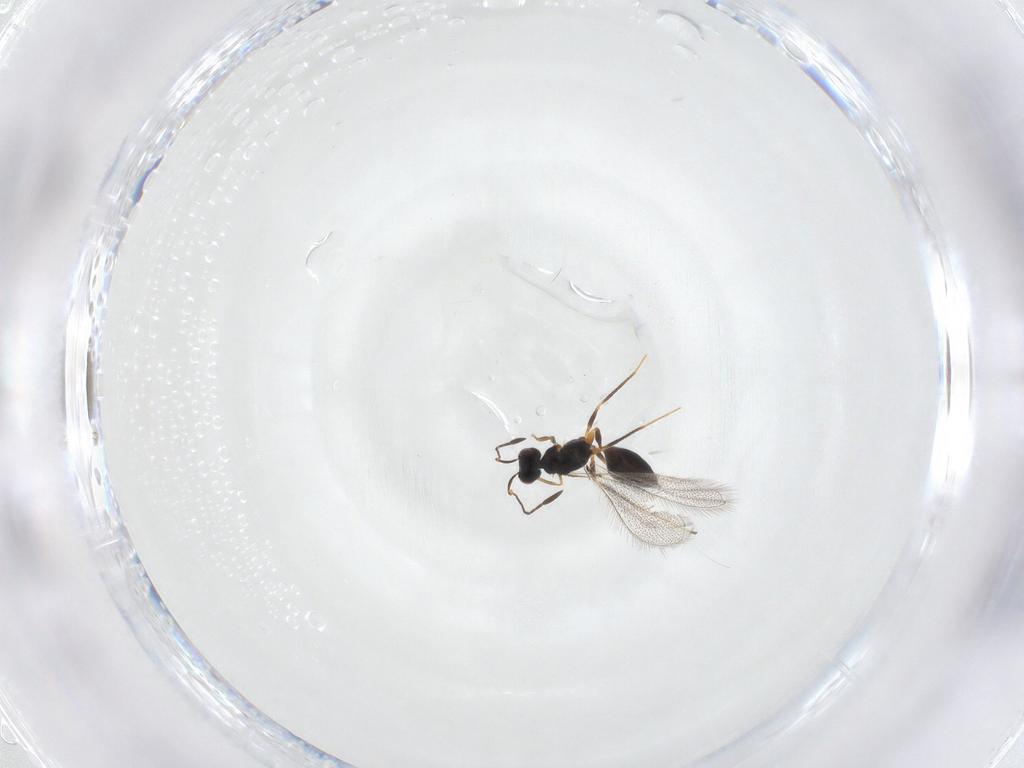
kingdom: Animalia
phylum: Arthropoda
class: Insecta
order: Hymenoptera
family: Eulophidae
